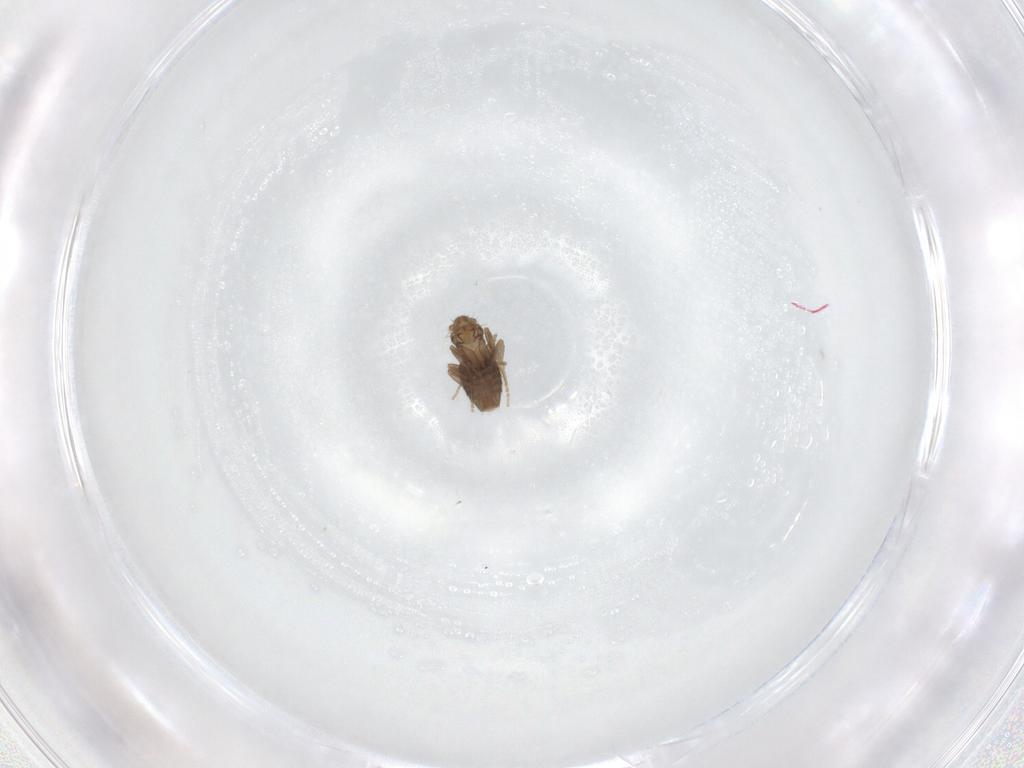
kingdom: Animalia
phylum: Arthropoda
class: Insecta
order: Diptera
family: Phoridae
